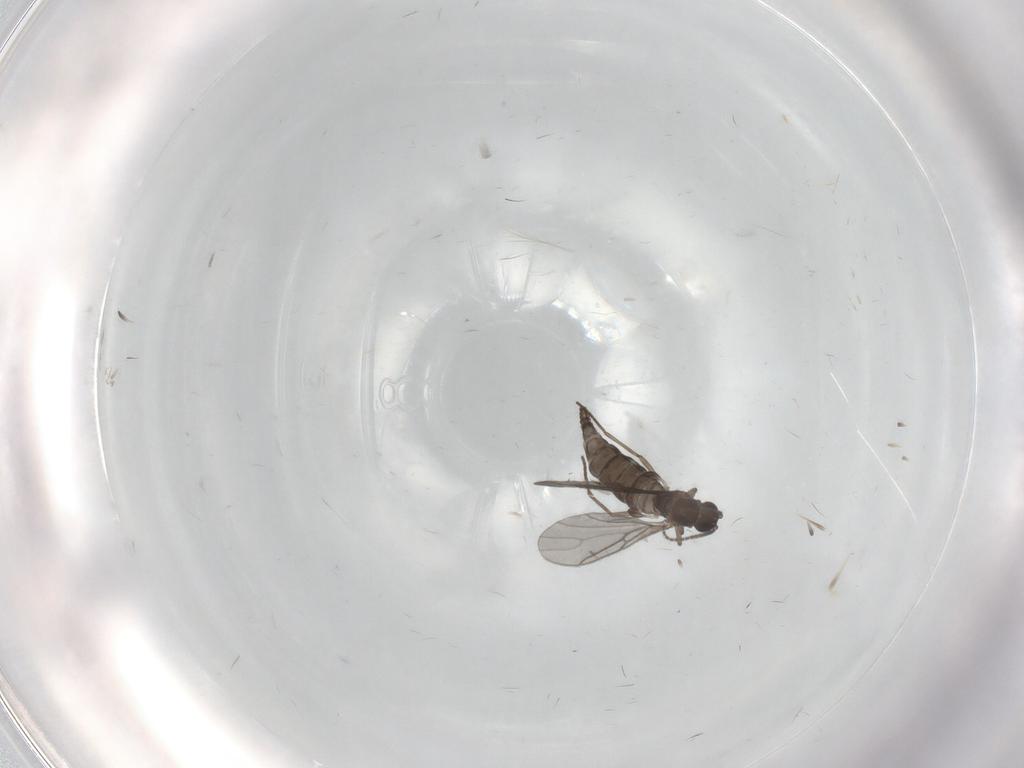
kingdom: Animalia
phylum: Arthropoda
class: Insecta
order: Diptera
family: Sciaridae
